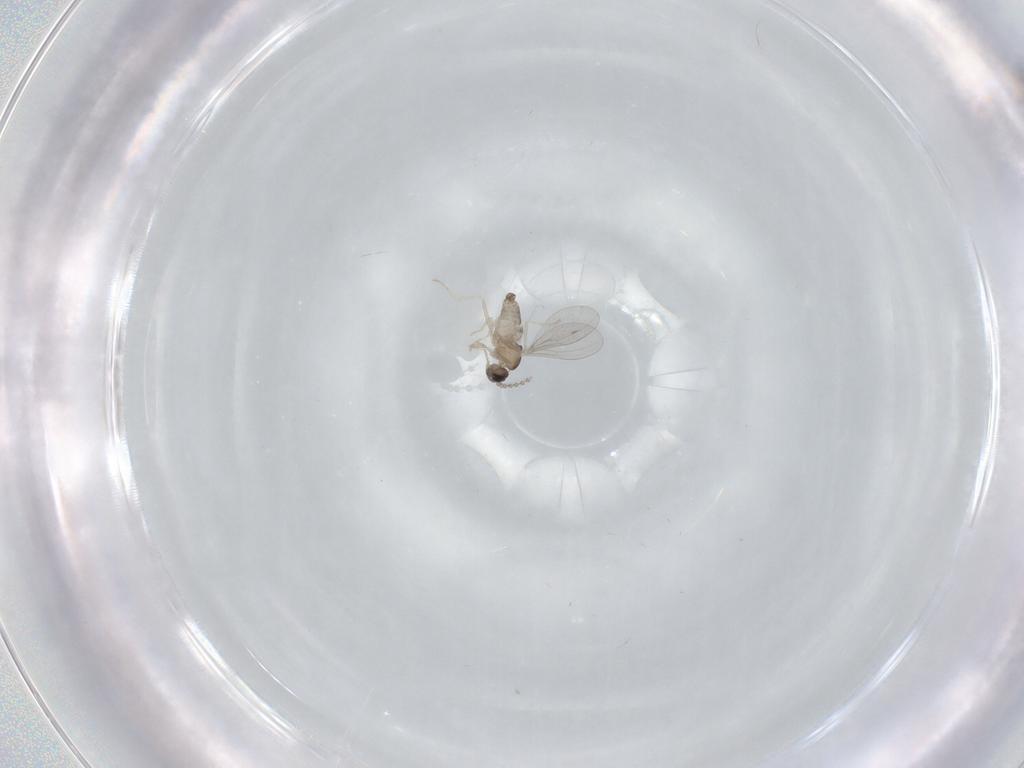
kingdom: Animalia
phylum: Arthropoda
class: Insecta
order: Diptera
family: Cecidomyiidae
